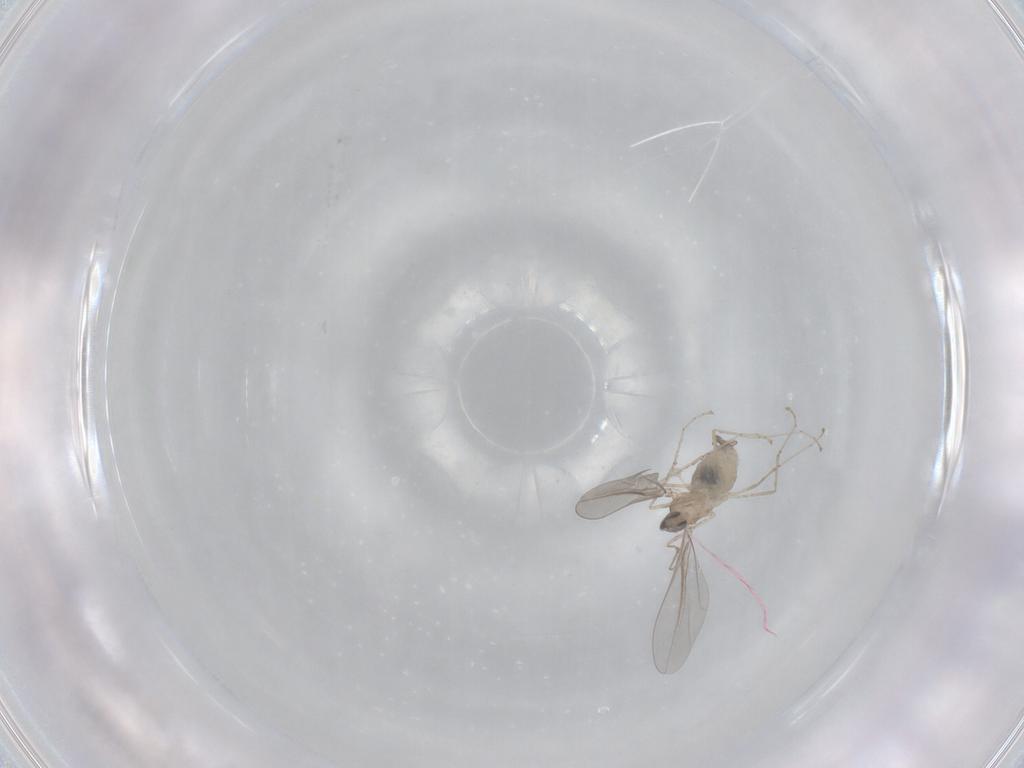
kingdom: Animalia
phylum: Arthropoda
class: Insecta
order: Diptera
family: Cecidomyiidae
